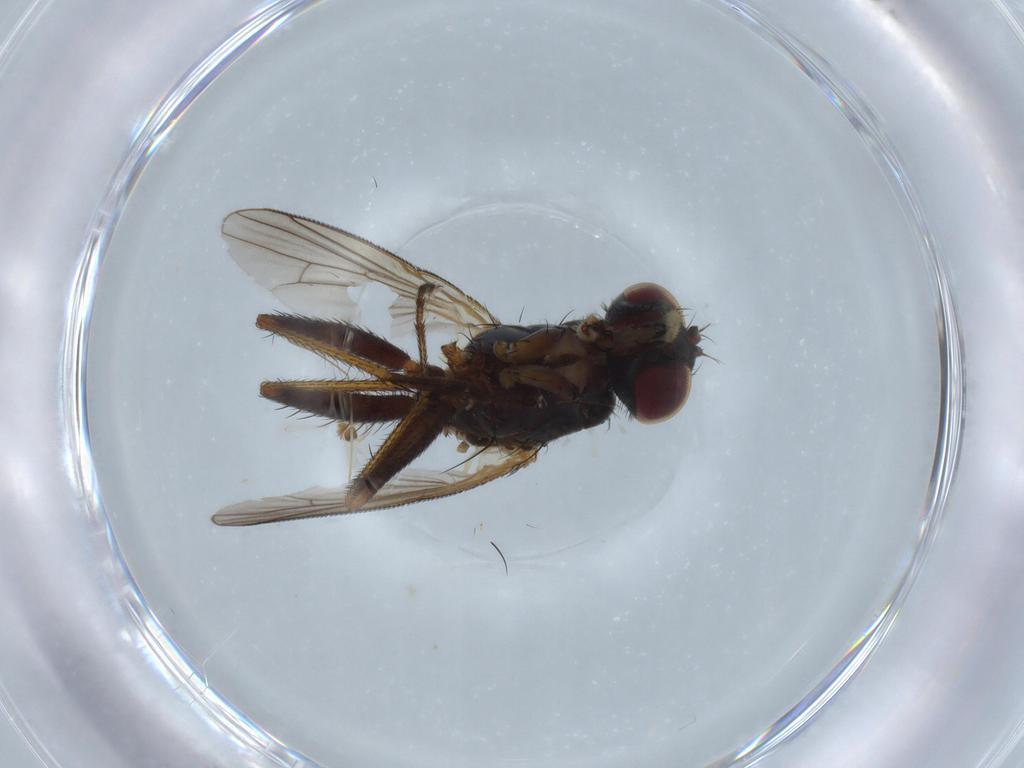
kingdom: Animalia
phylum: Arthropoda
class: Insecta
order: Diptera
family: Muscidae
